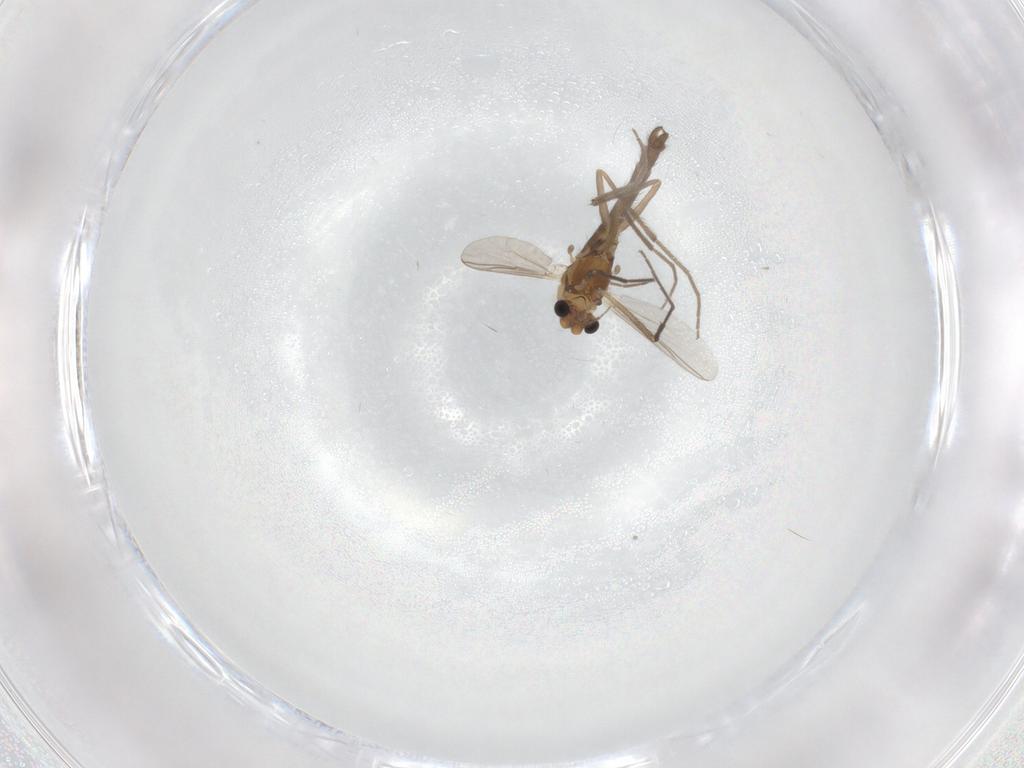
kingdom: Animalia
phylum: Arthropoda
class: Insecta
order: Diptera
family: Chironomidae
